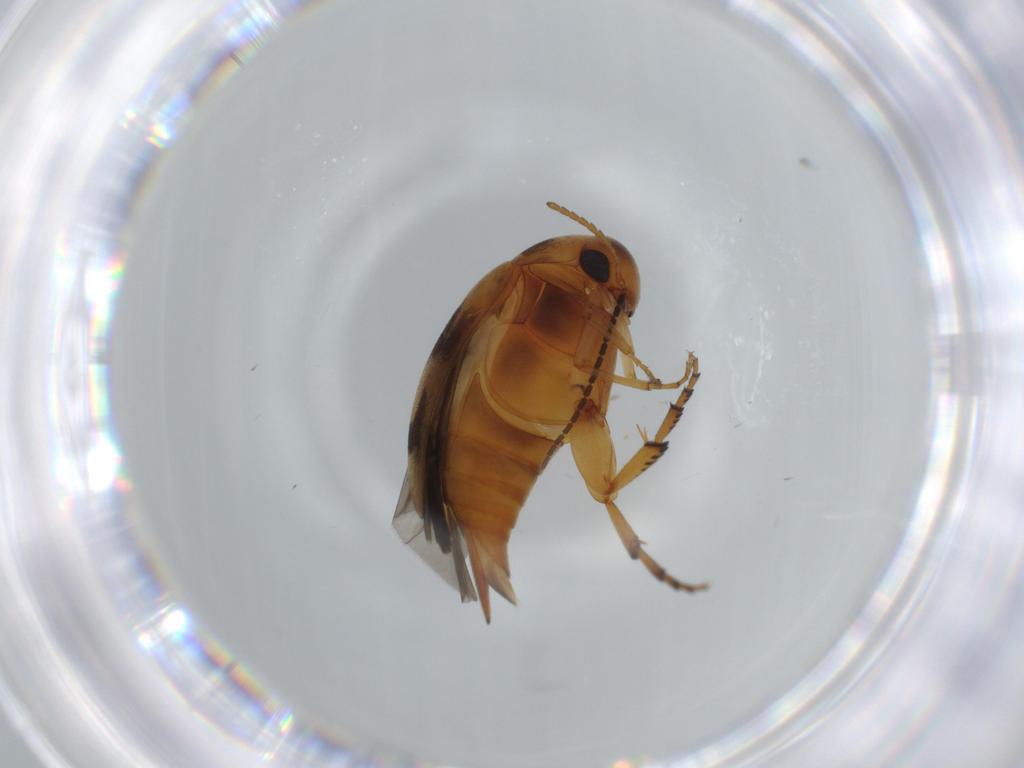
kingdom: Animalia
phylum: Arthropoda
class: Insecta
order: Coleoptera
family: Mordellidae
